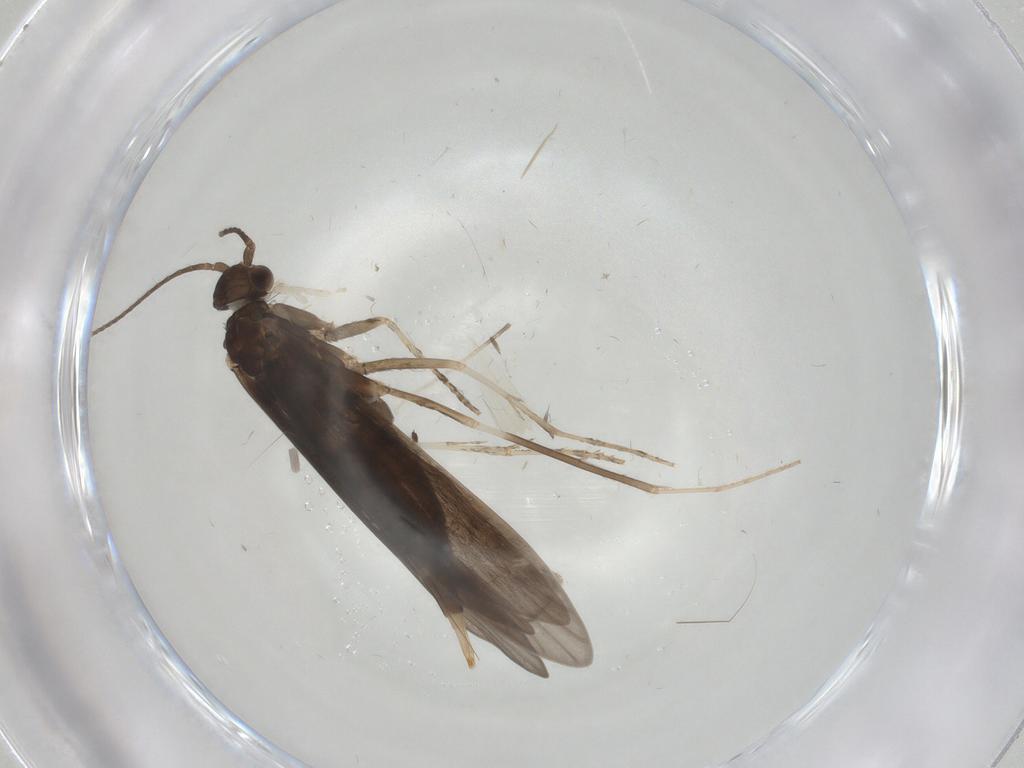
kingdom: Animalia
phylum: Arthropoda
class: Insecta
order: Trichoptera
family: Xiphocentronidae
